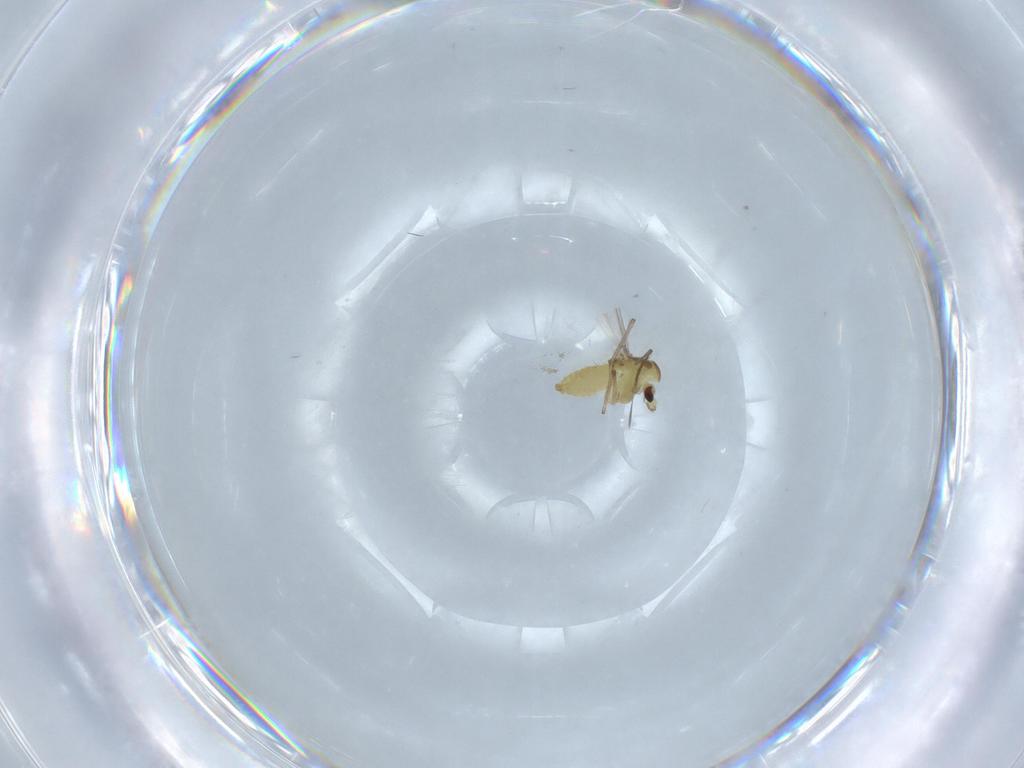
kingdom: Animalia
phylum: Arthropoda
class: Insecta
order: Diptera
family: Chironomidae
